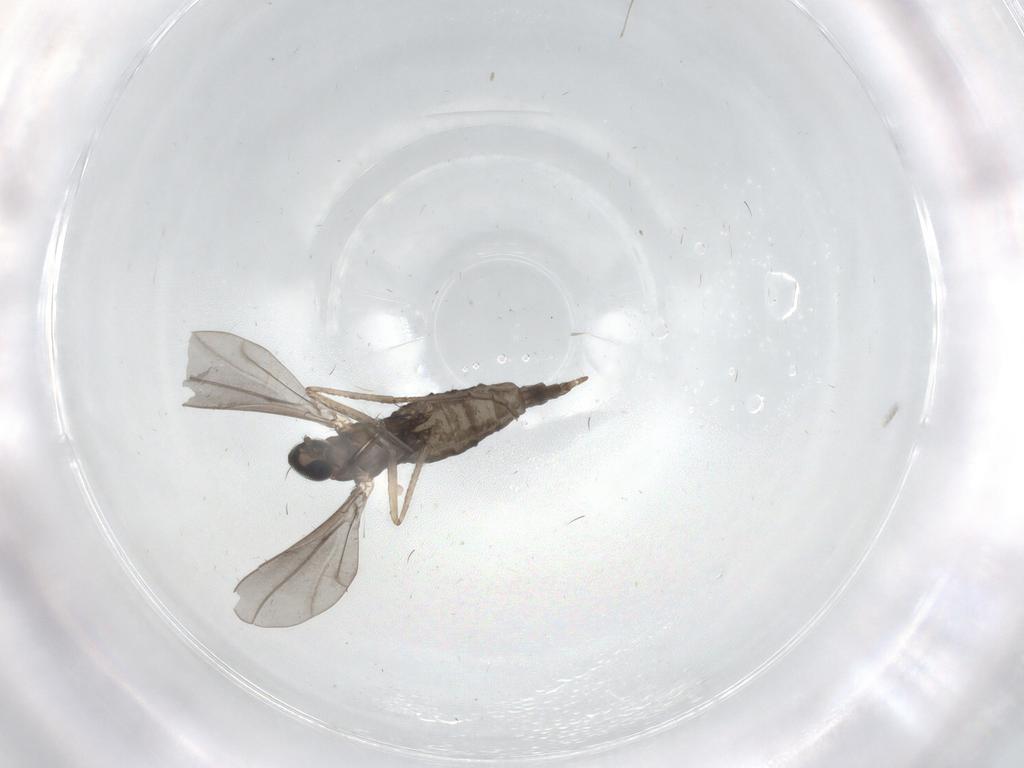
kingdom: Animalia
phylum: Arthropoda
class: Insecta
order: Diptera
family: Cecidomyiidae
